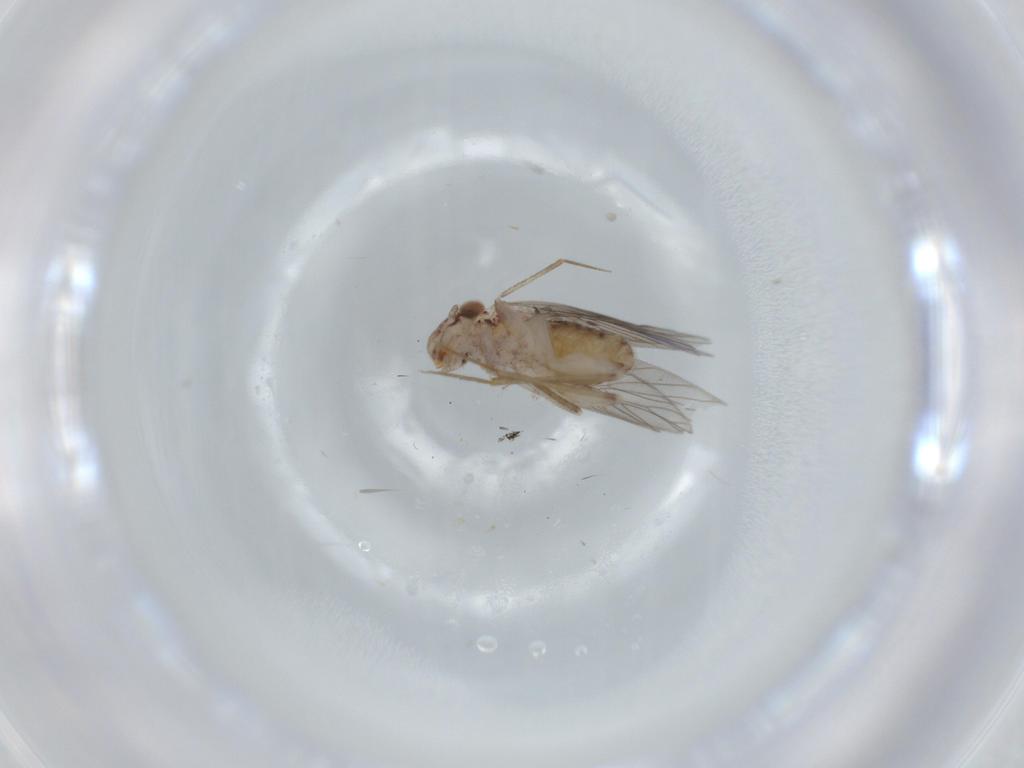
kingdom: Animalia
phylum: Arthropoda
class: Insecta
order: Psocodea
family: Lepidopsocidae
